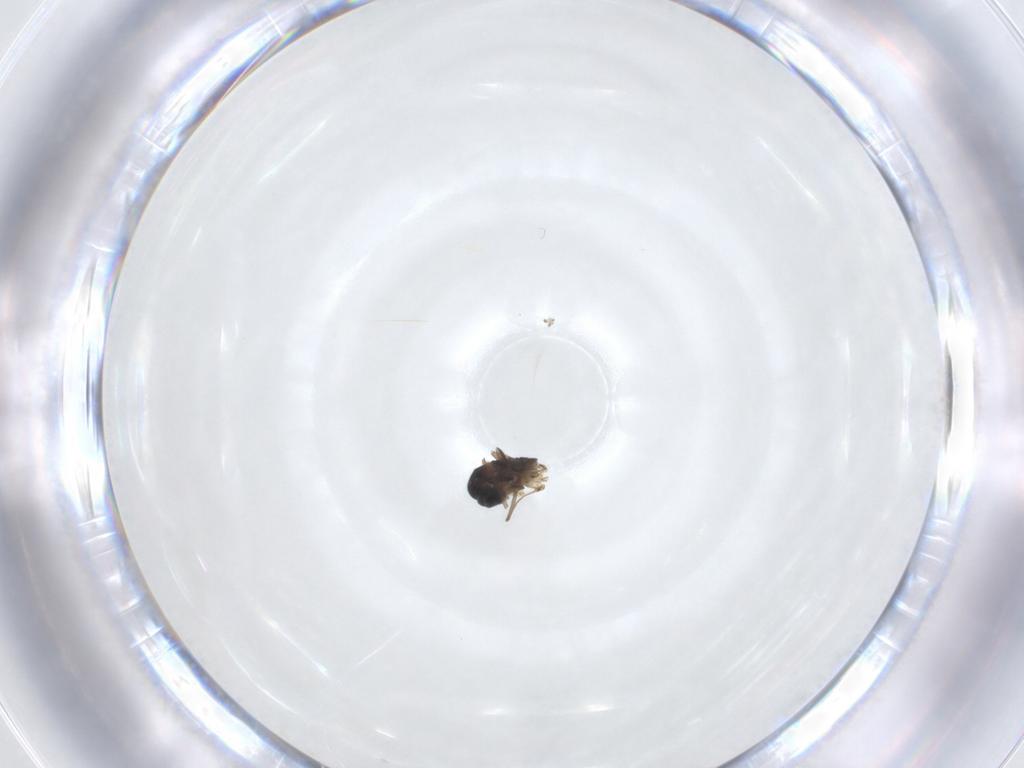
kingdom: Animalia
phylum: Arthropoda
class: Insecta
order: Diptera
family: Sciaridae
